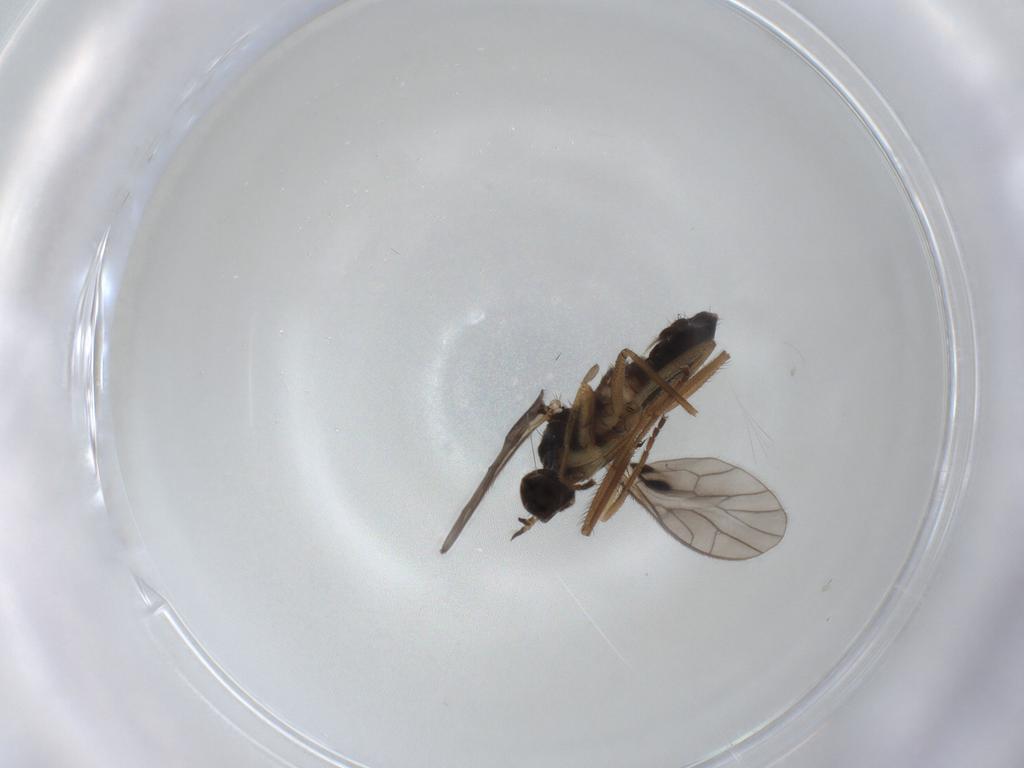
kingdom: Animalia
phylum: Arthropoda
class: Insecta
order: Diptera
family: Empididae
